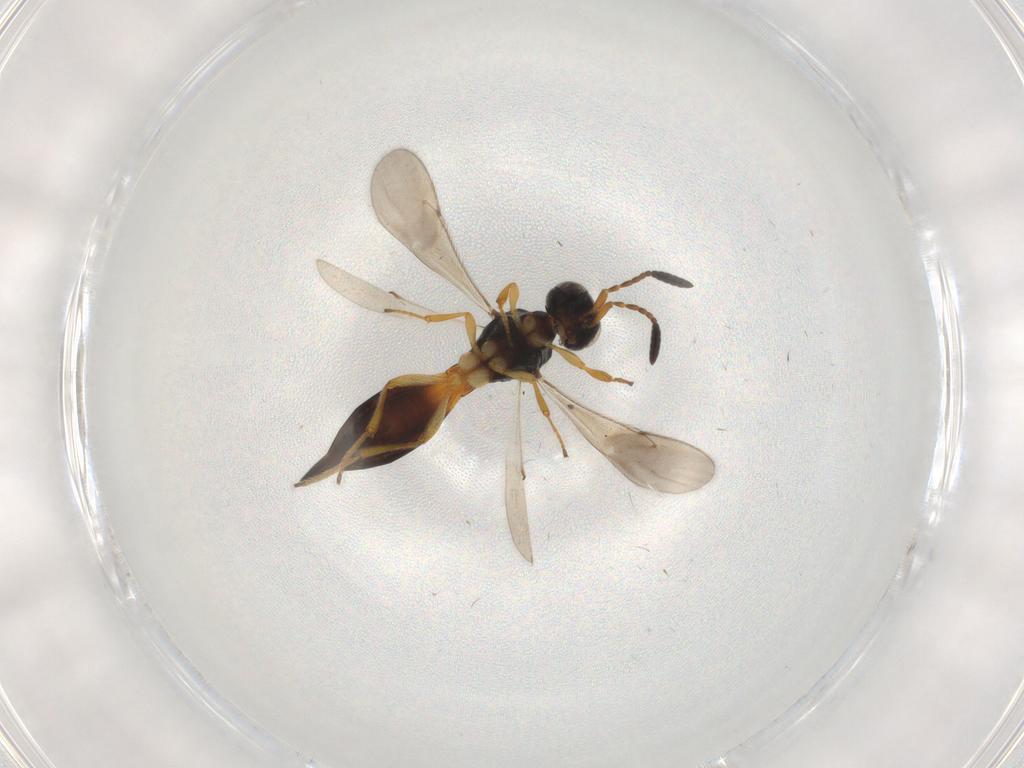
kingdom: Animalia
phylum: Arthropoda
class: Insecta
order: Hymenoptera
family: Scelionidae
